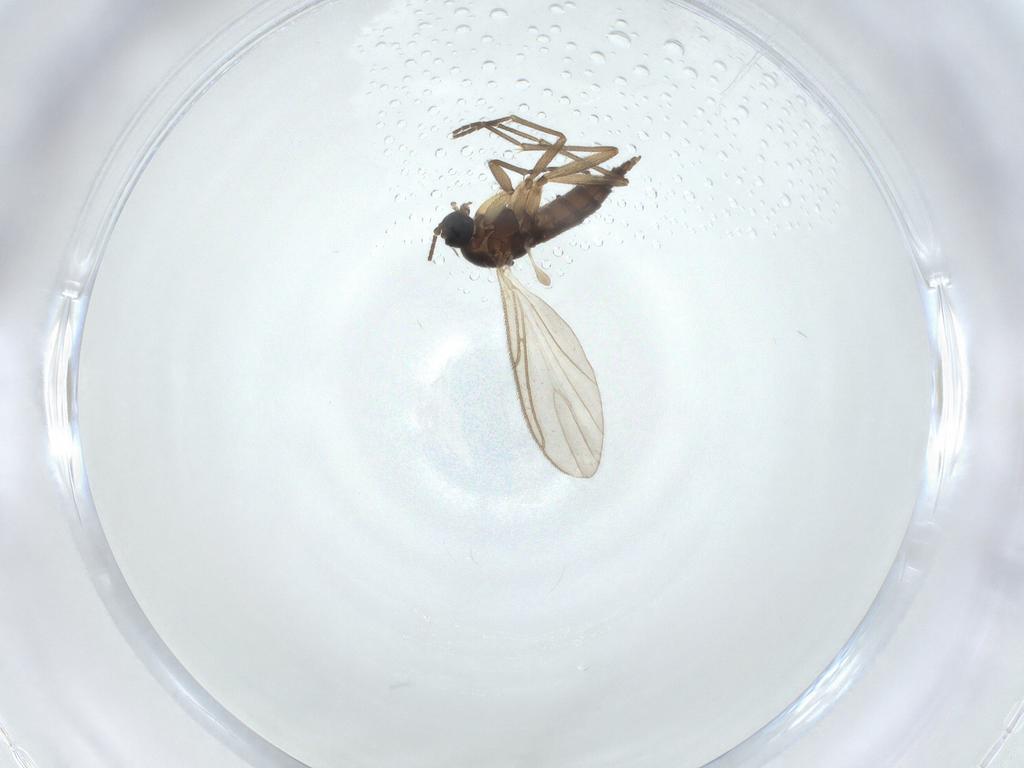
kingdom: Animalia
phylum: Arthropoda
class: Insecta
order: Diptera
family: Sciaridae
